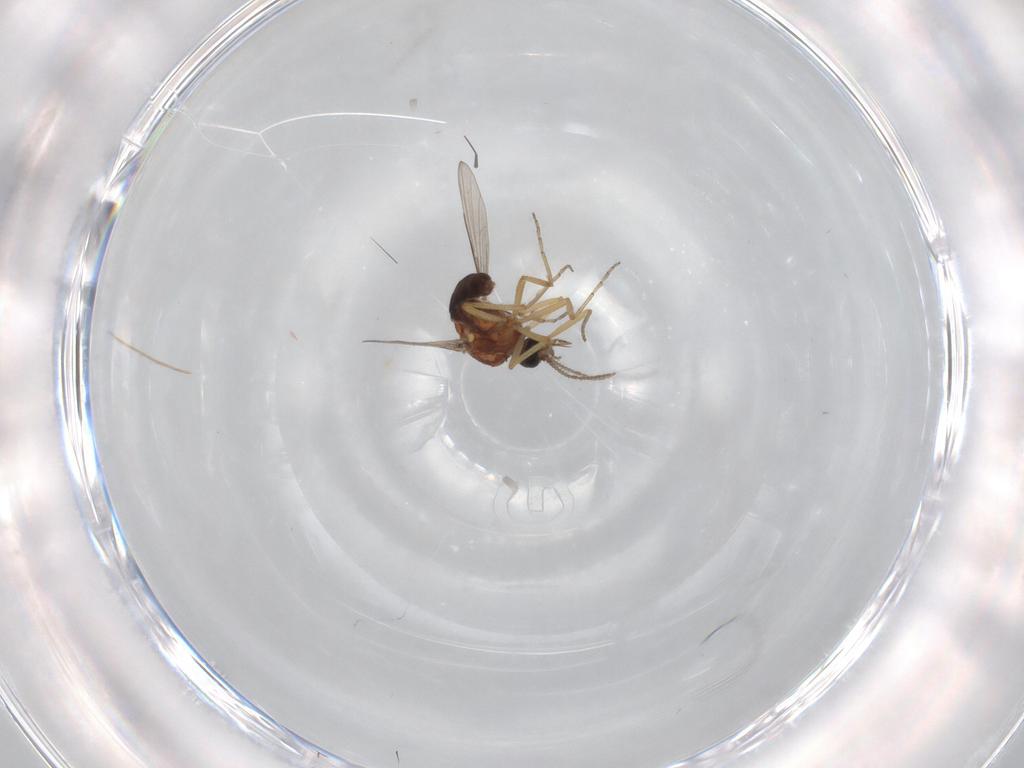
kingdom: Animalia
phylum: Arthropoda
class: Insecta
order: Diptera
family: Ceratopogonidae
